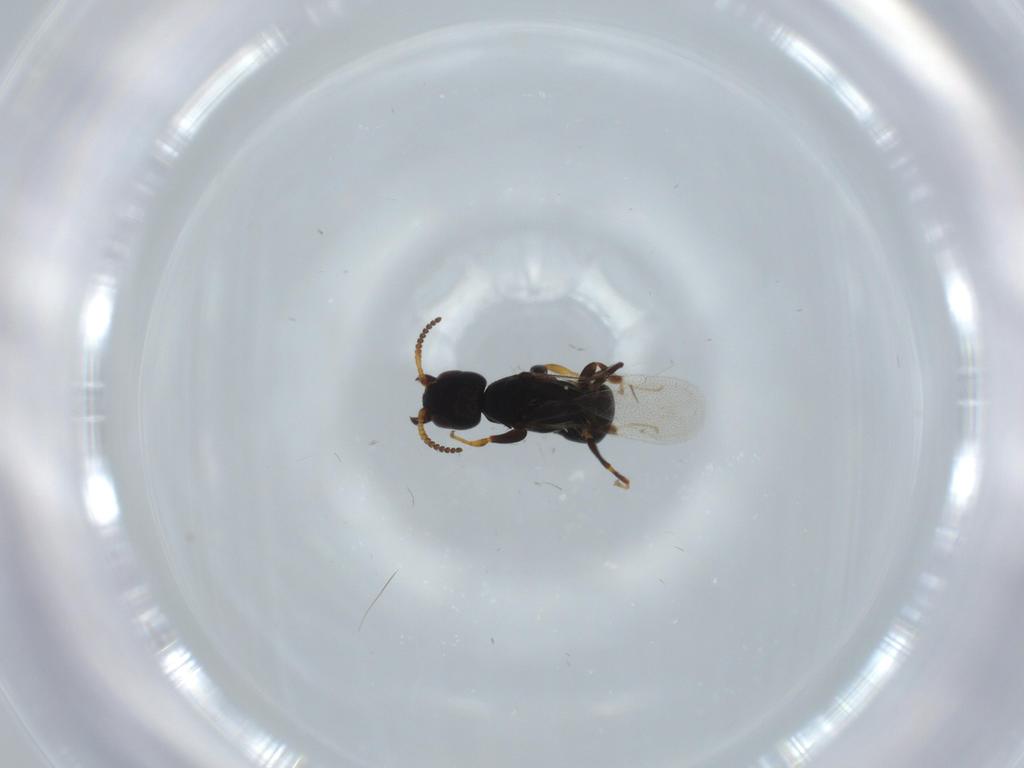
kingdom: Animalia
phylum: Arthropoda
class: Insecta
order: Hymenoptera
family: Bethylidae
